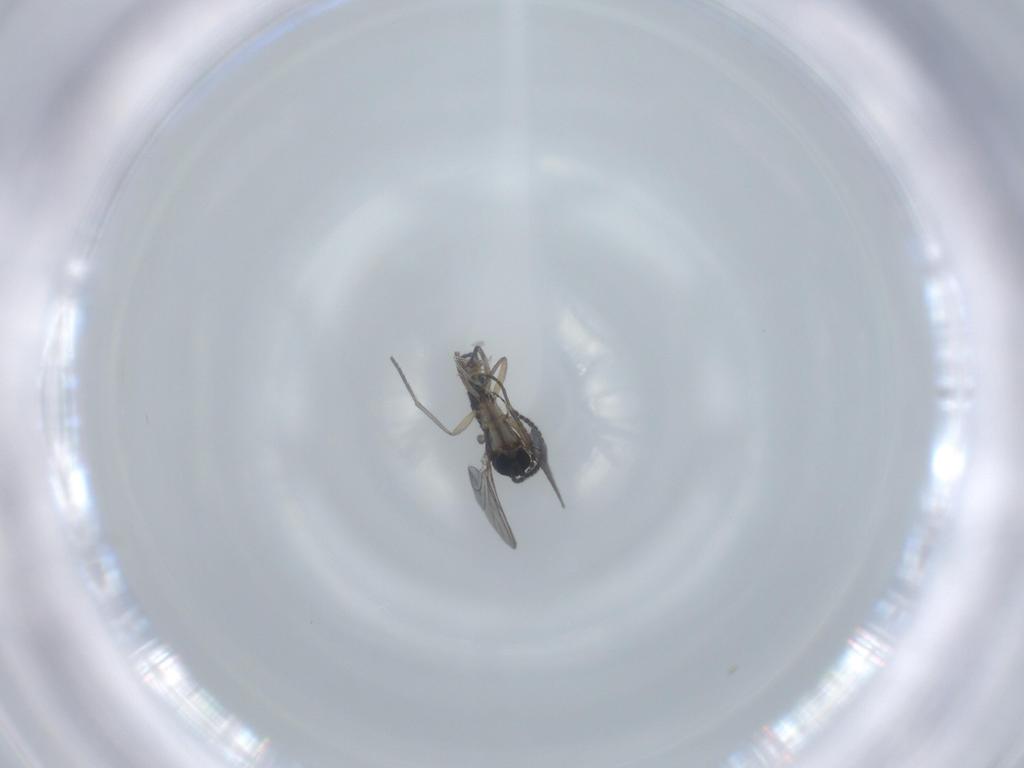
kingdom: Animalia
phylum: Arthropoda
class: Insecta
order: Diptera
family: Sciaridae
